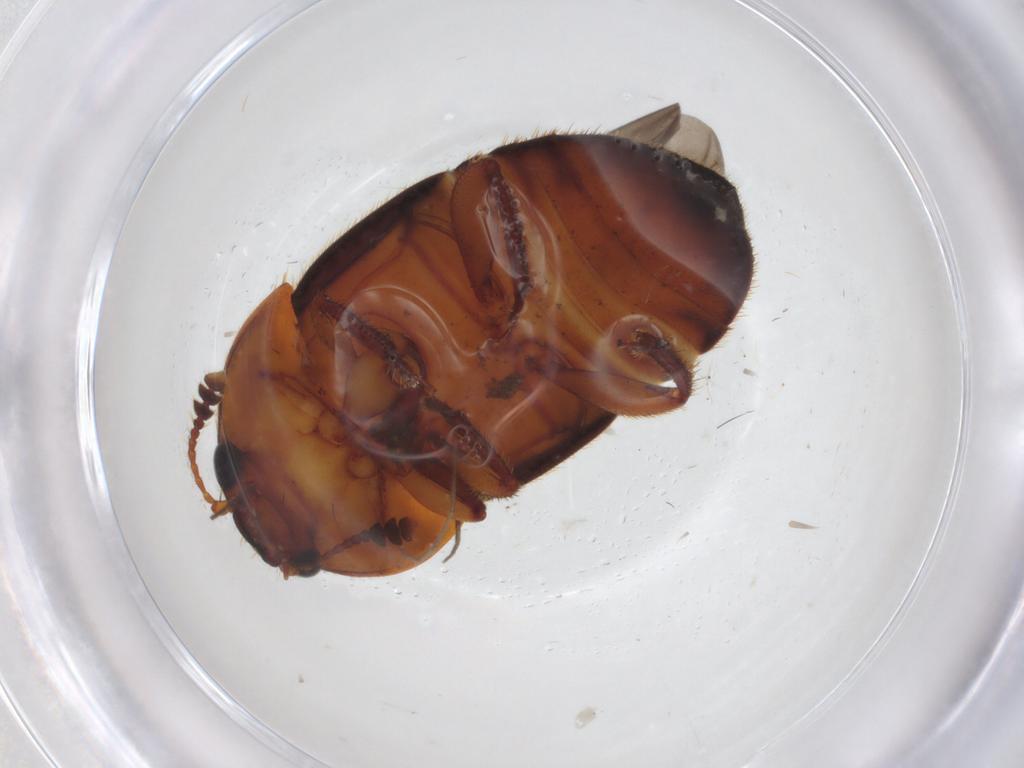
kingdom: Animalia
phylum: Arthropoda
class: Insecta
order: Coleoptera
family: Nitidulidae
